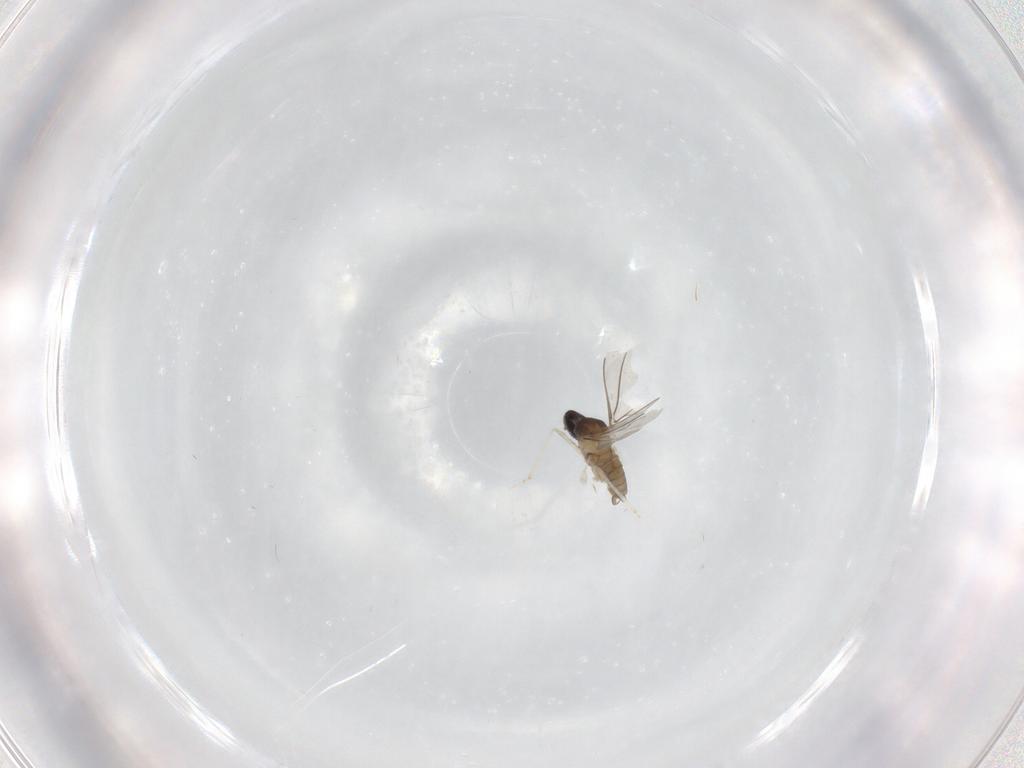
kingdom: Animalia
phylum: Arthropoda
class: Insecta
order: Diptera
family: Cecidomyiidae
